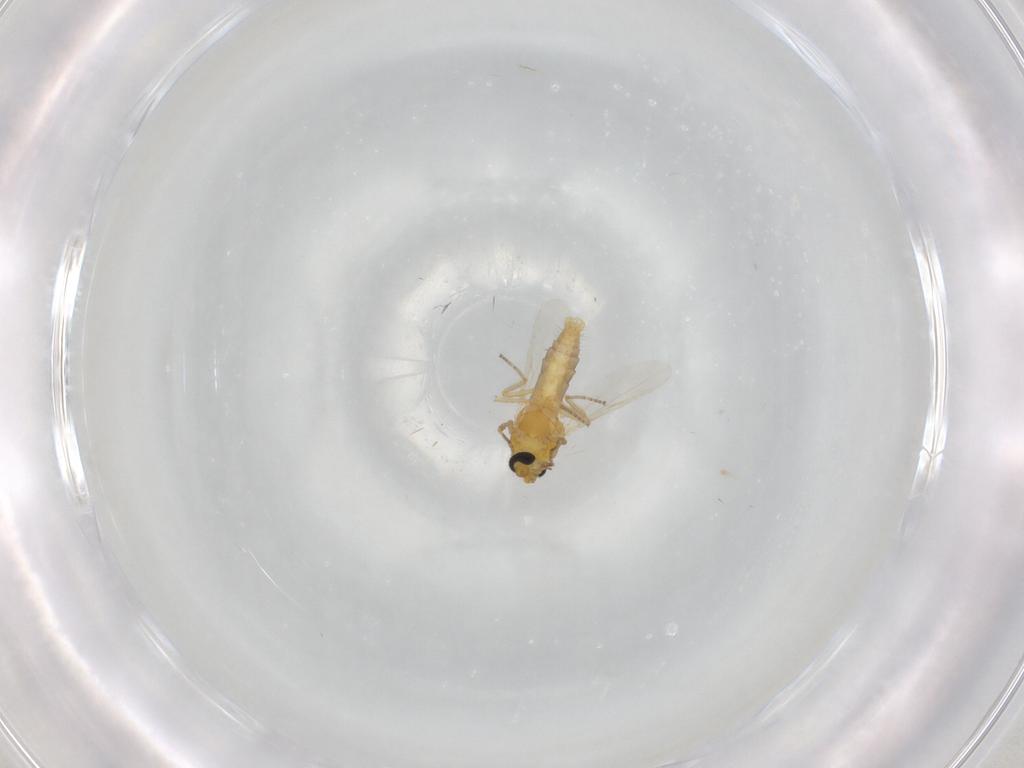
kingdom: Animalia
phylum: Arthropoda
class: Insecta
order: Diptera
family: Ceratopogonidae
